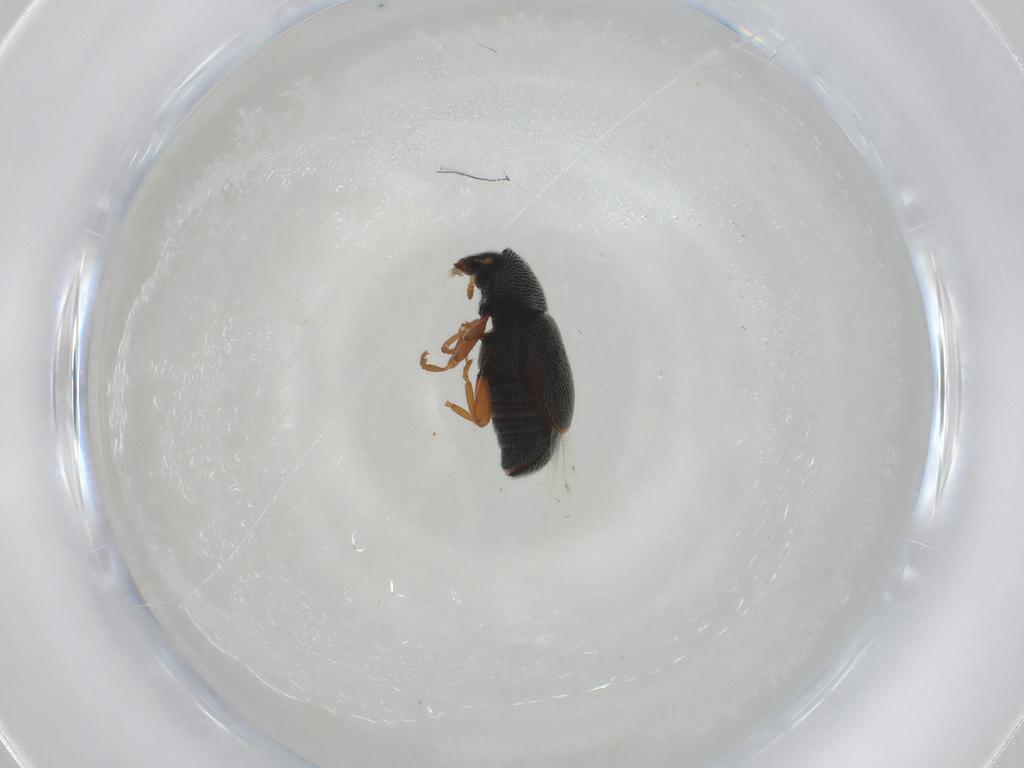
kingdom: Animalia
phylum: Arthropoda
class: Insecta
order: Coleoptera
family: Anthribidae
